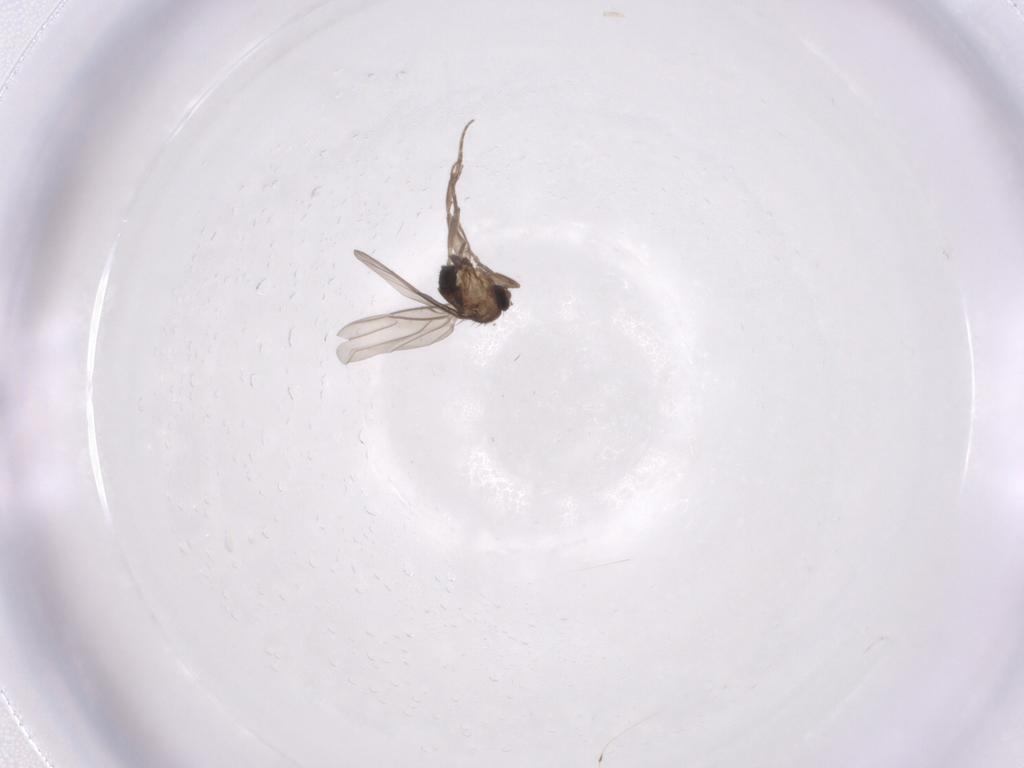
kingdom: Animalia
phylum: Arthropoda
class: Insecta
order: Diptera
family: Phoridae
